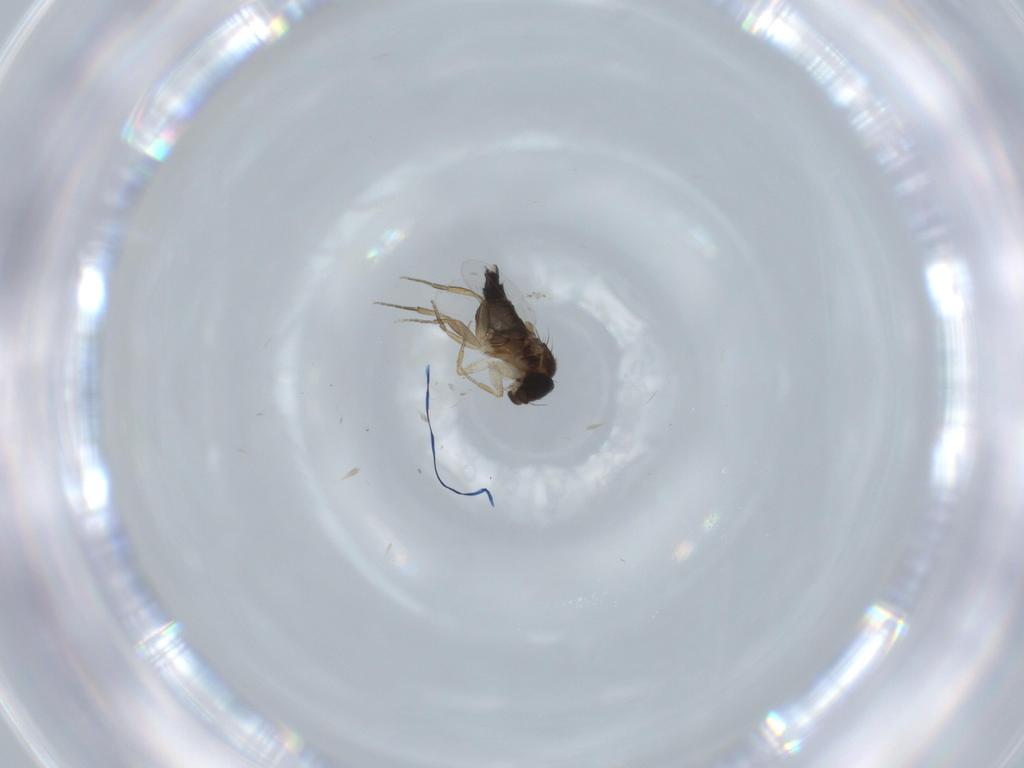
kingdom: Animalia
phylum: Arthropoda
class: Insecta
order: Diptera
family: Phoridae
